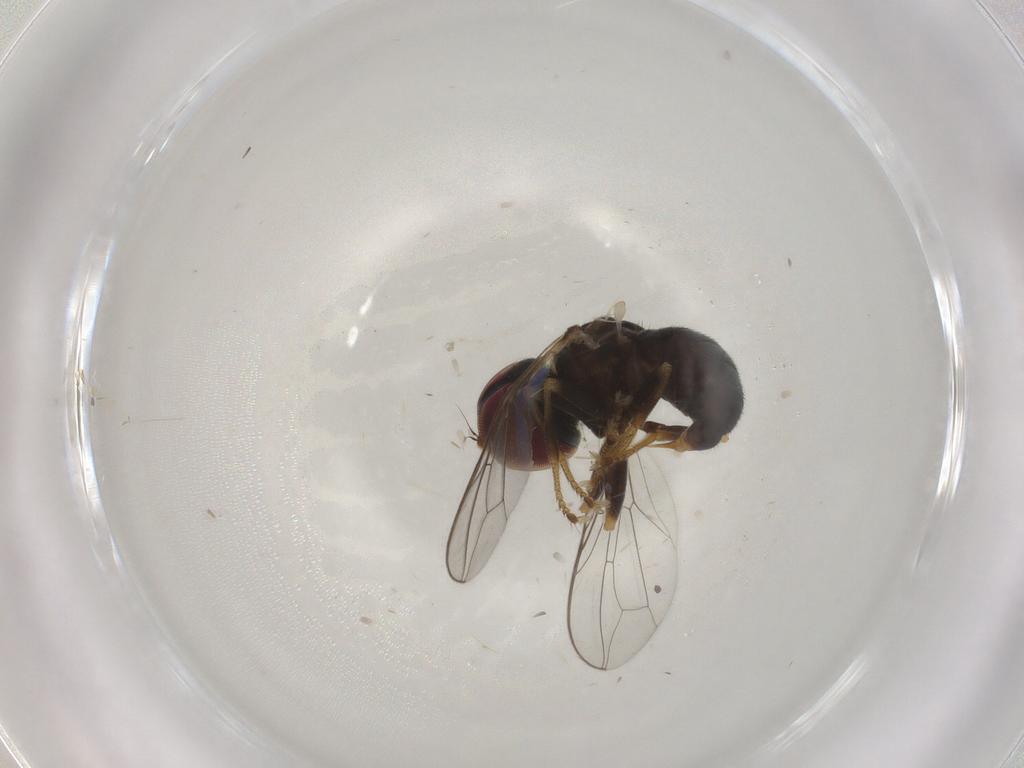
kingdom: Animalia
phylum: Arthropoda
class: Insecta
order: Diptera
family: Pipunculidae
